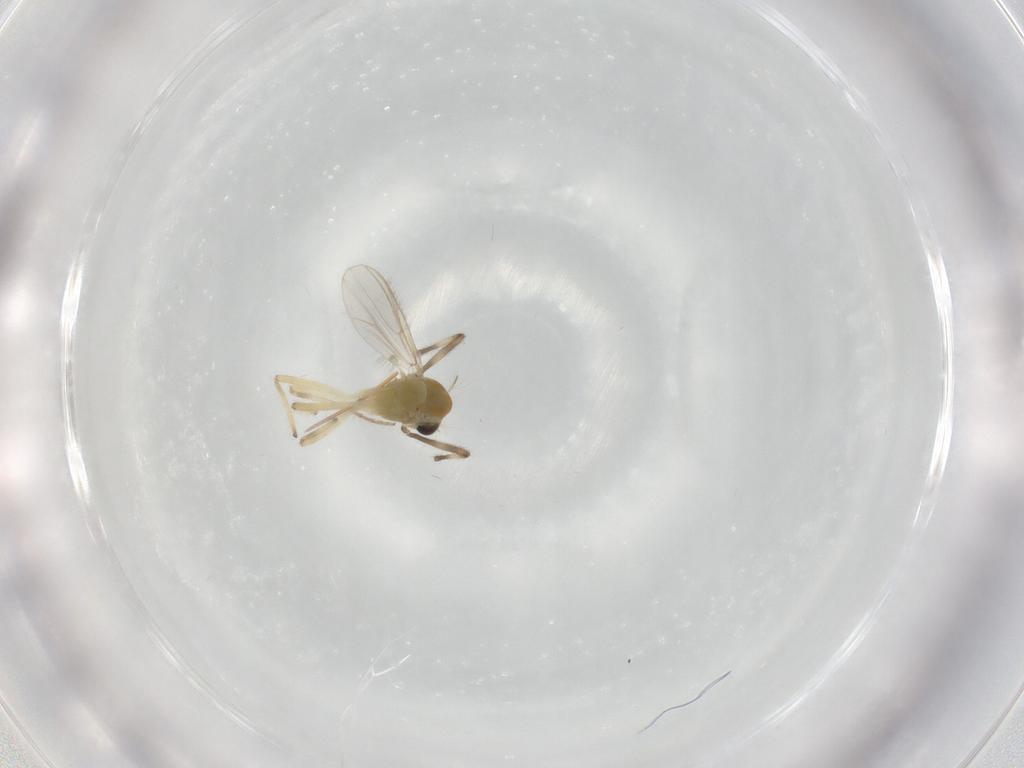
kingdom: Animalia
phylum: Arthropoda
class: Insecta
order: Diptera
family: Chironomidae
